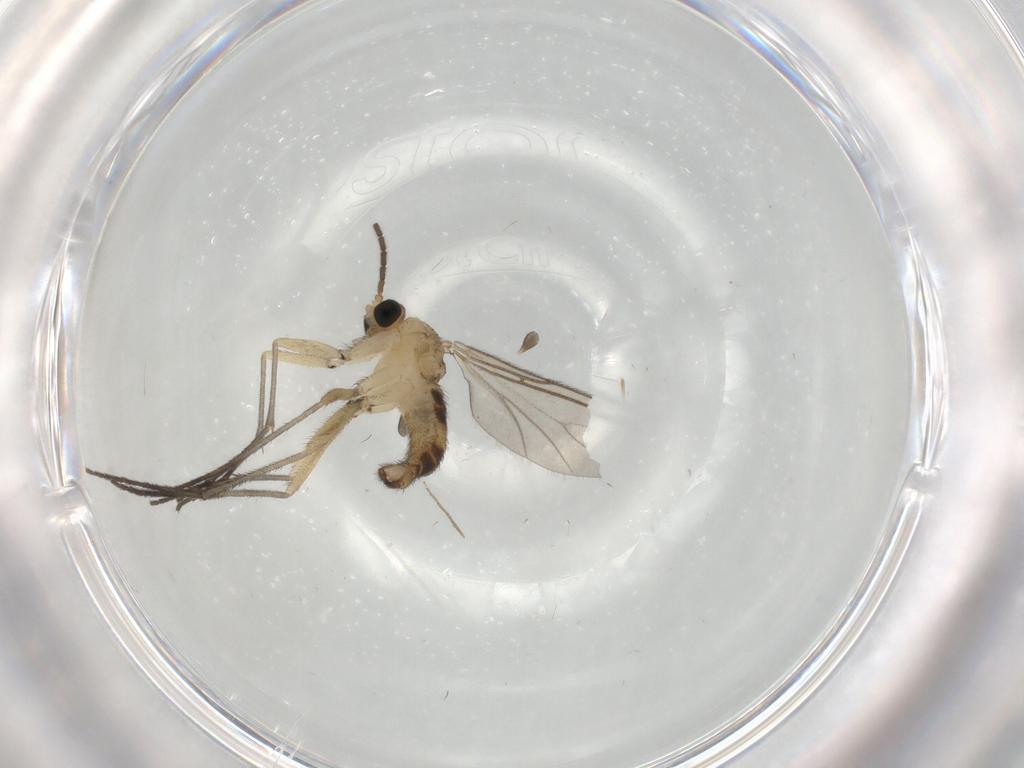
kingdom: Animalia
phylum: Arthropoda
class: Insecta
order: Diptera
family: Sciaridae
